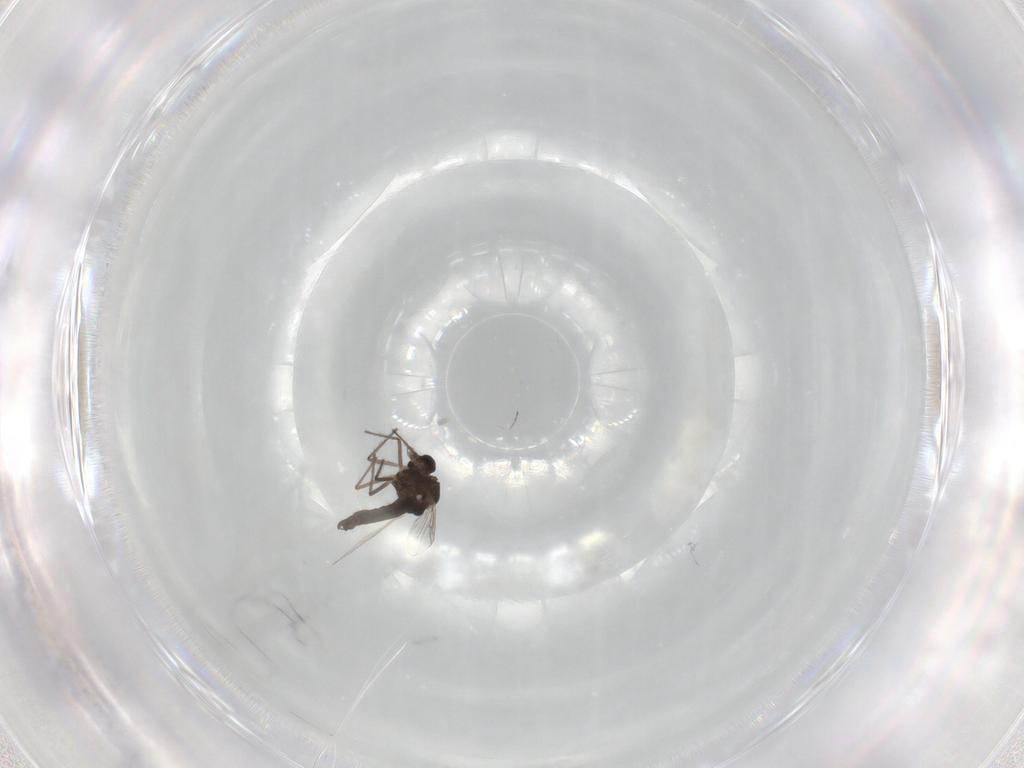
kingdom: Animalia
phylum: Arthropoda
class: Insecta
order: Diptera
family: Chironomidae
